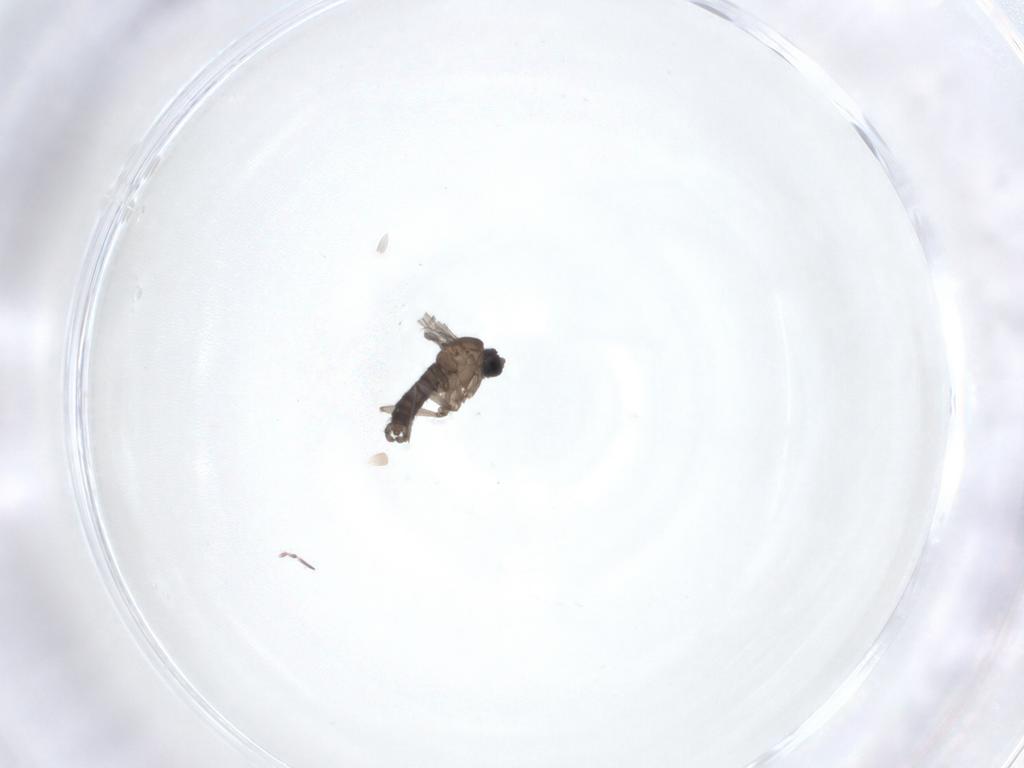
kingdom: Animalia
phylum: Arthropoda
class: Insecta
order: Diptera
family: Sciaridae
